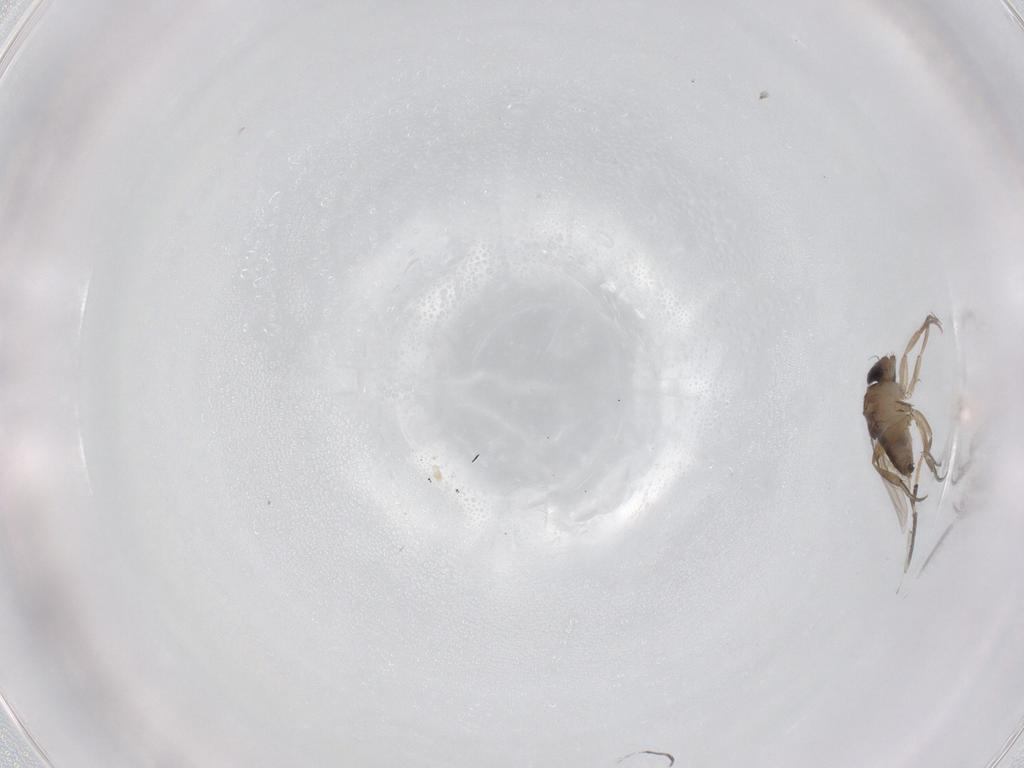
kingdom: Animalia
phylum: Arthropoda
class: Insecta
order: Diptera
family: Phoridae
